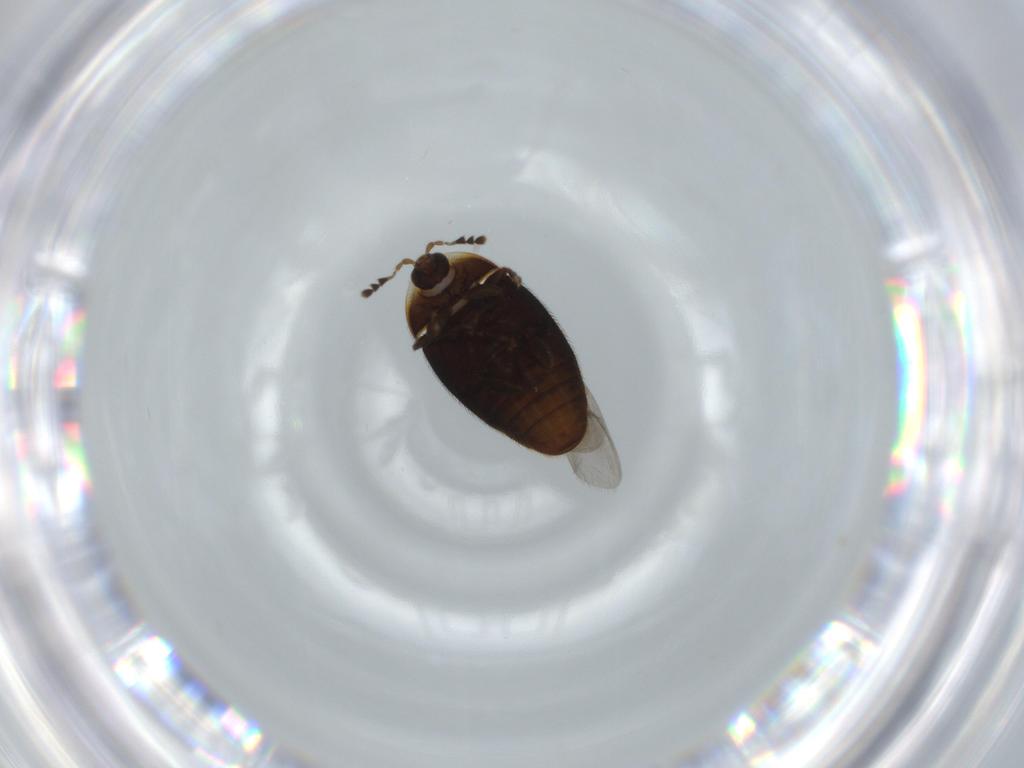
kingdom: Animalia
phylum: Arthropoda
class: Insecta
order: Coleoptera
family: Corylophidae
